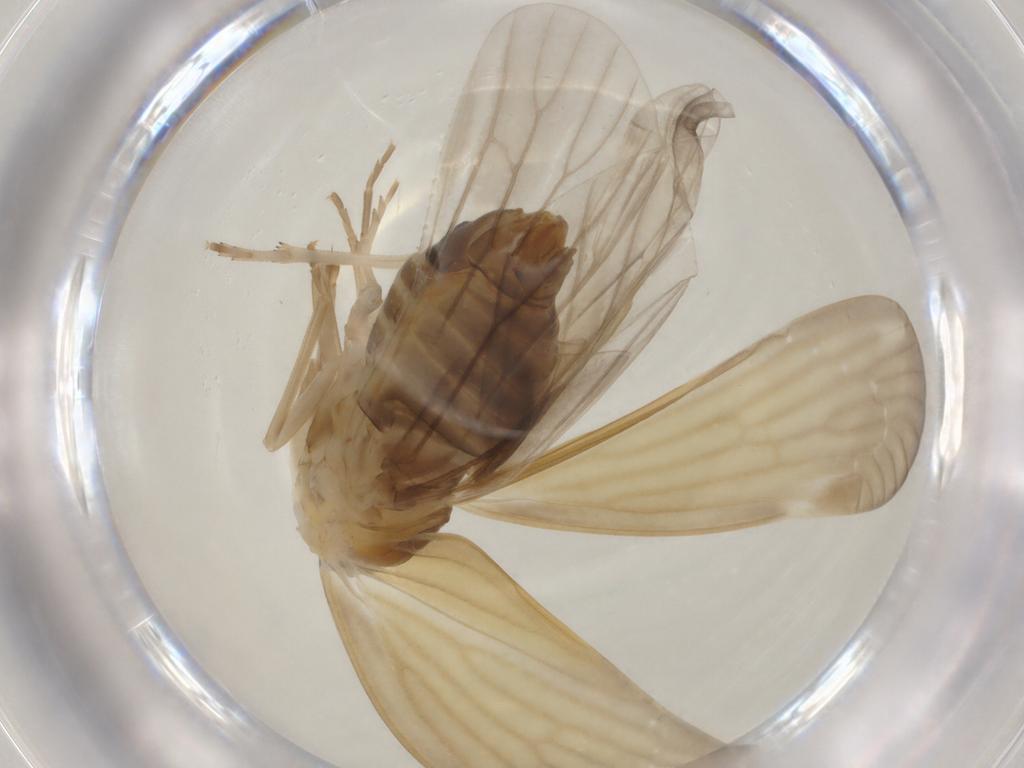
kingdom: Animalia
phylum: Arthropoda
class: Insecta
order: Hemiptera
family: Derbidae
